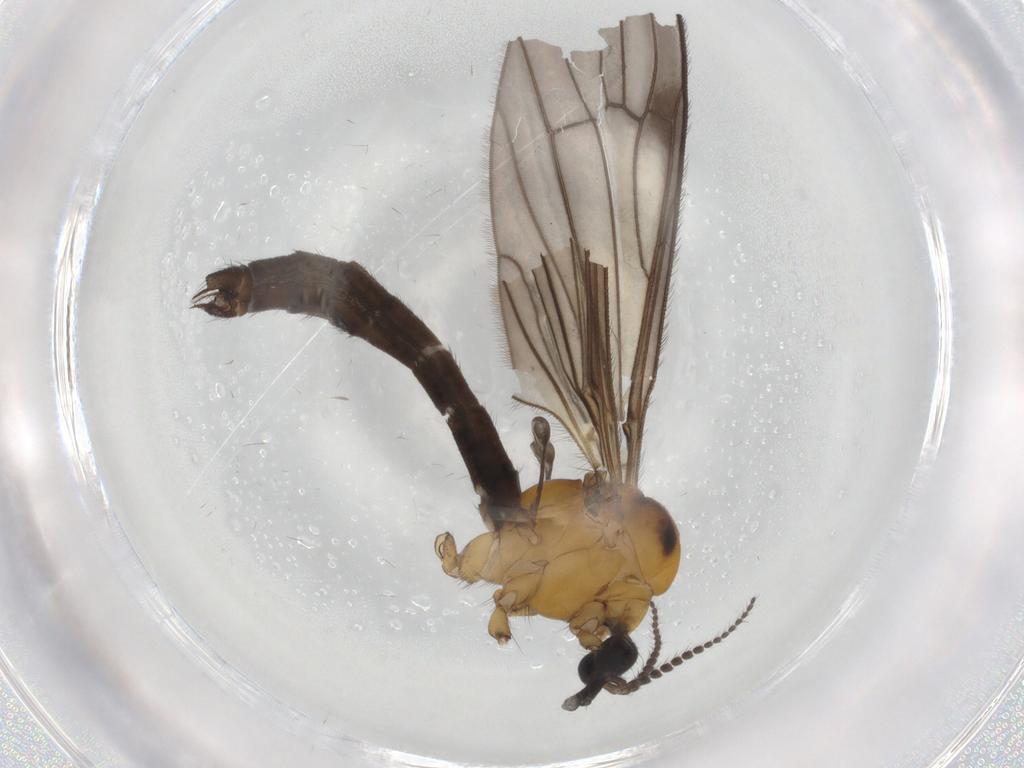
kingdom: Animalia
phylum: Arthropoda
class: Insecta
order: Diptera
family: Limoniidae
